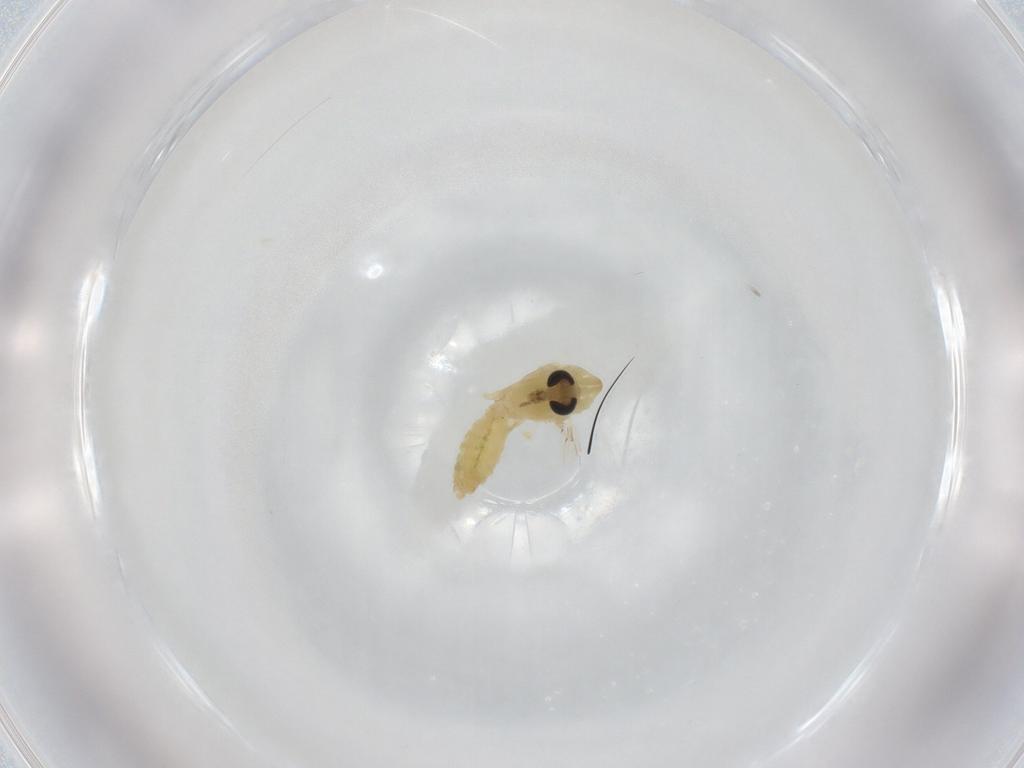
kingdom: Animalia
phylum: Arthropoda
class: Insecta
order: Diptera
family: Chironomidae
